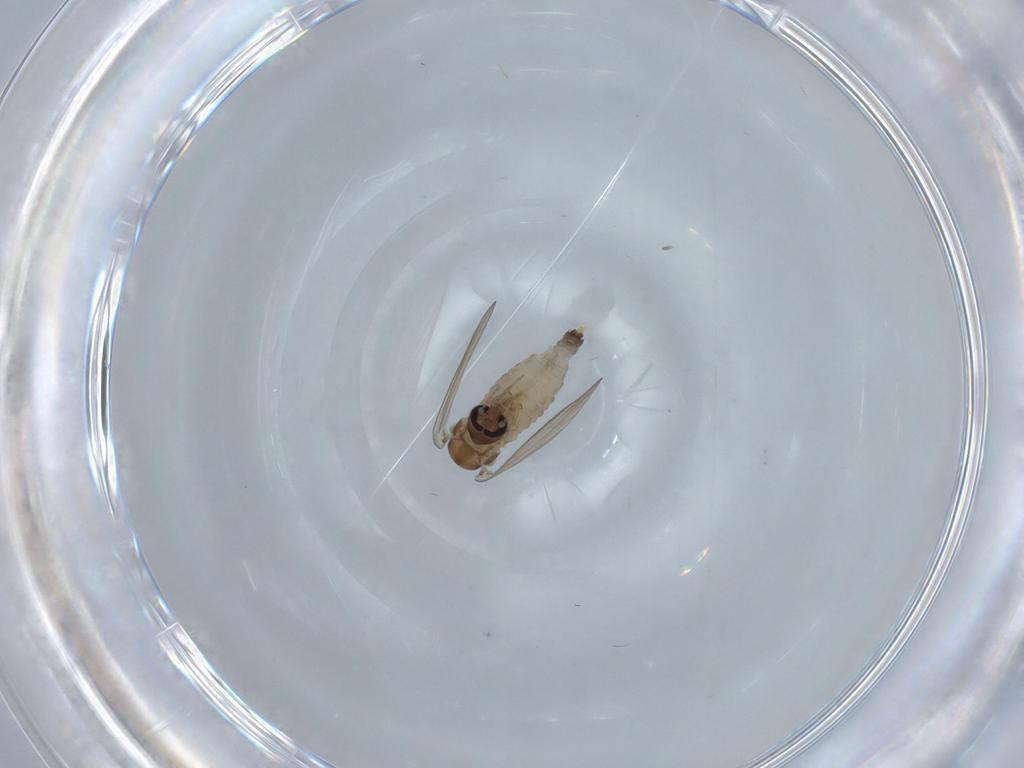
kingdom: Animalia
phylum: Arthropoda
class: Insecta
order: Diptera
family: Psychodidae
